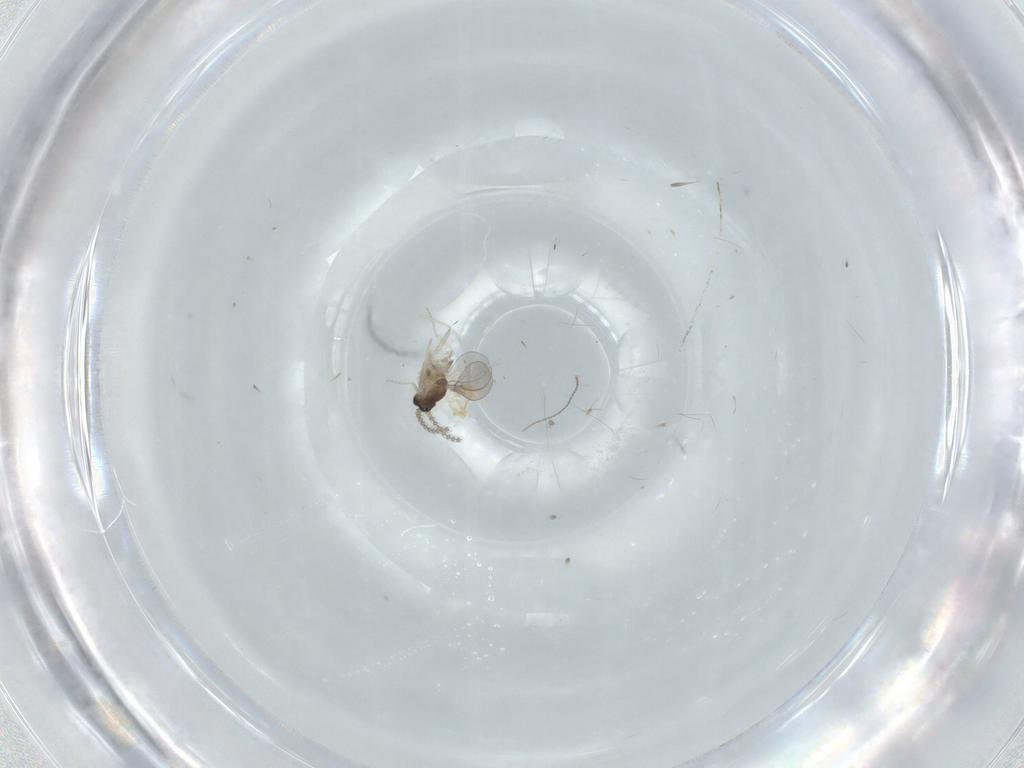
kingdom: Animalia
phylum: Arthropoda
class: Insecta
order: Diptera
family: Cecidomyiidae
